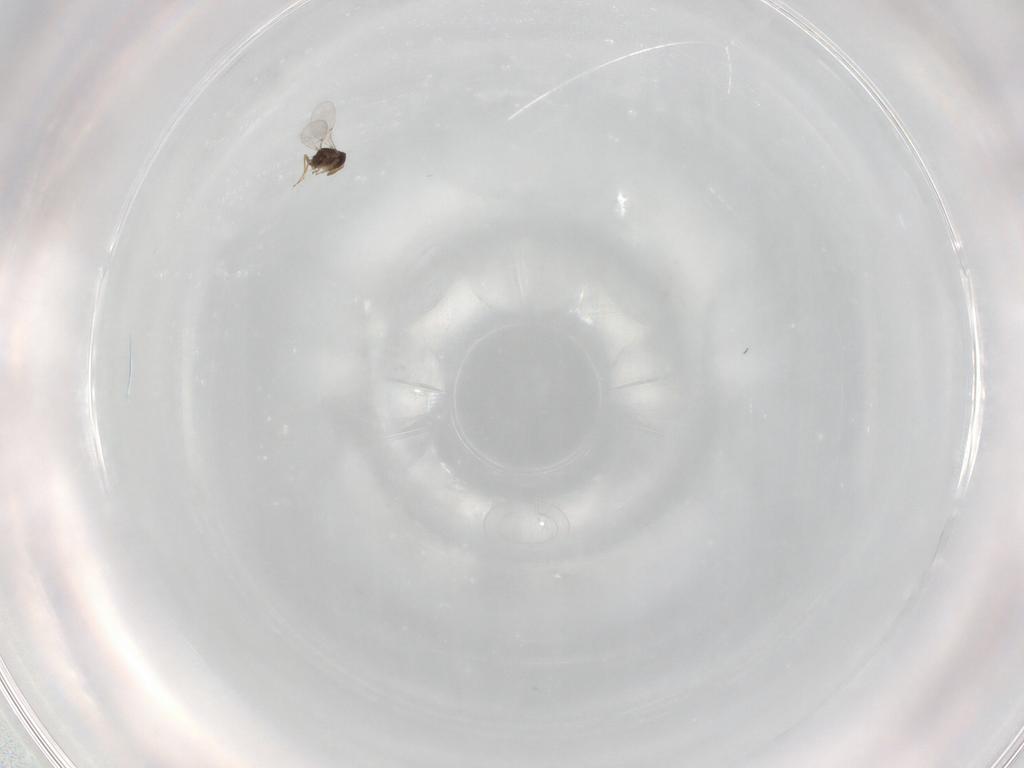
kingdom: Animalia
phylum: Arthropoda
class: Insecta
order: Hymenoptera
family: Encyrtidae
